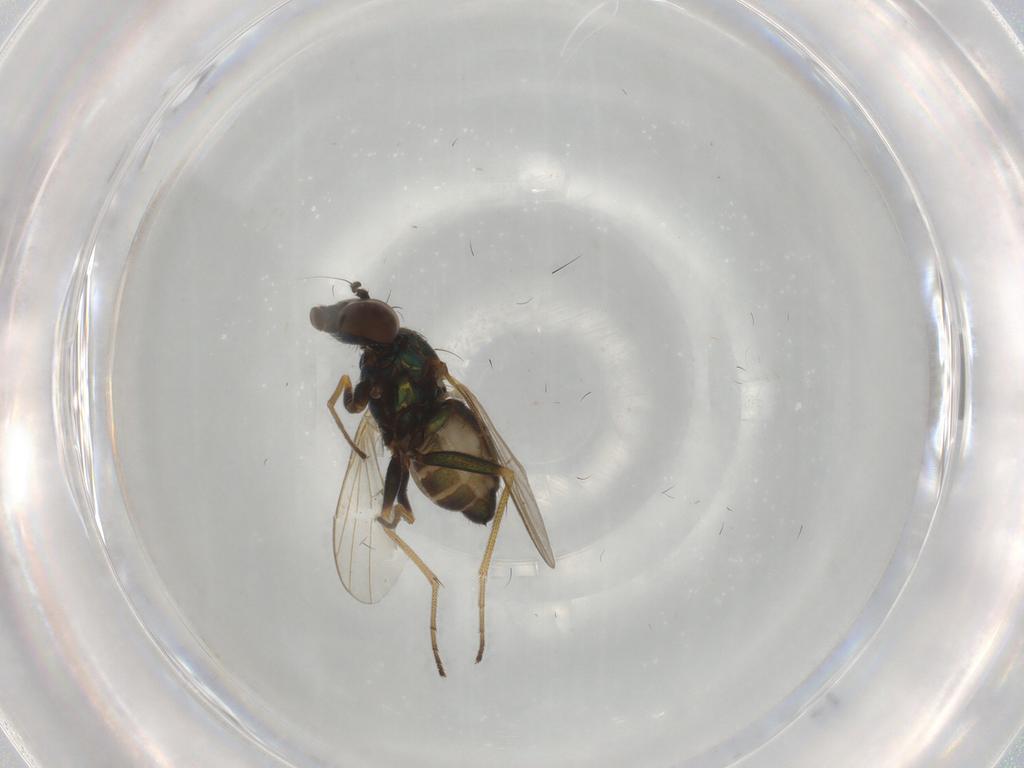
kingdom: Animalia
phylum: Arthropoda
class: Insecta
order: Diptera
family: Dolichopodidae
